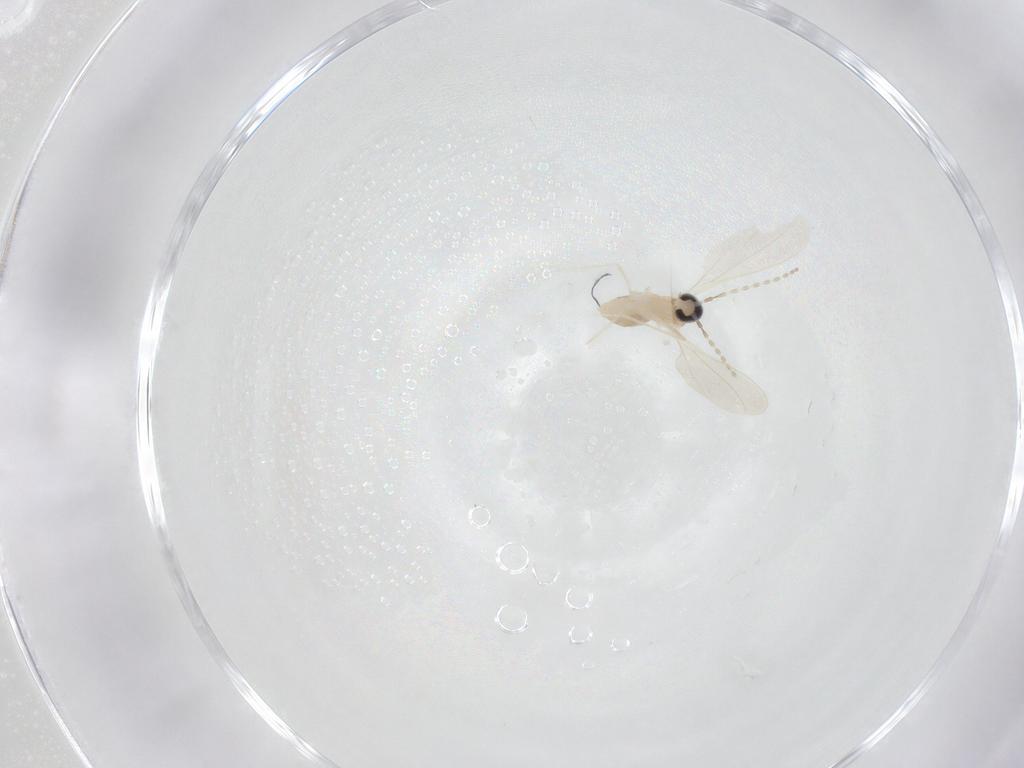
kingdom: Animalia
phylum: Arthropoda
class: Insecta
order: Diptera
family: Cecidomyiidae
